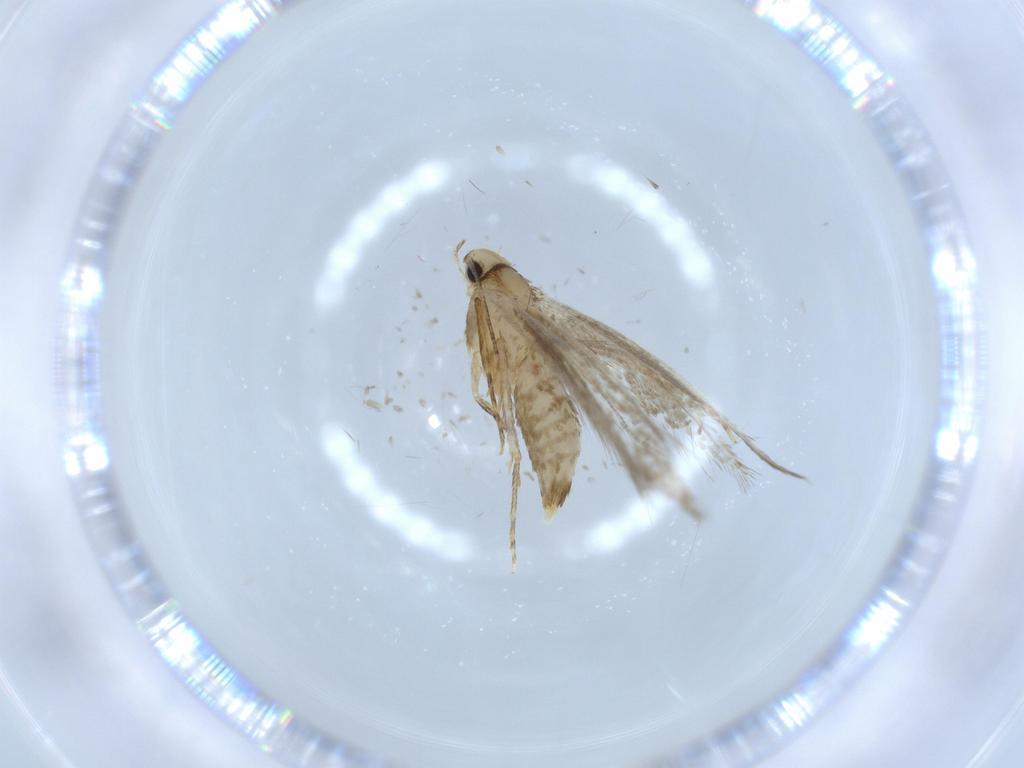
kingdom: Animalia
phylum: Arthropoda
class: Insecta
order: Lepidoptera
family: Tineidae
